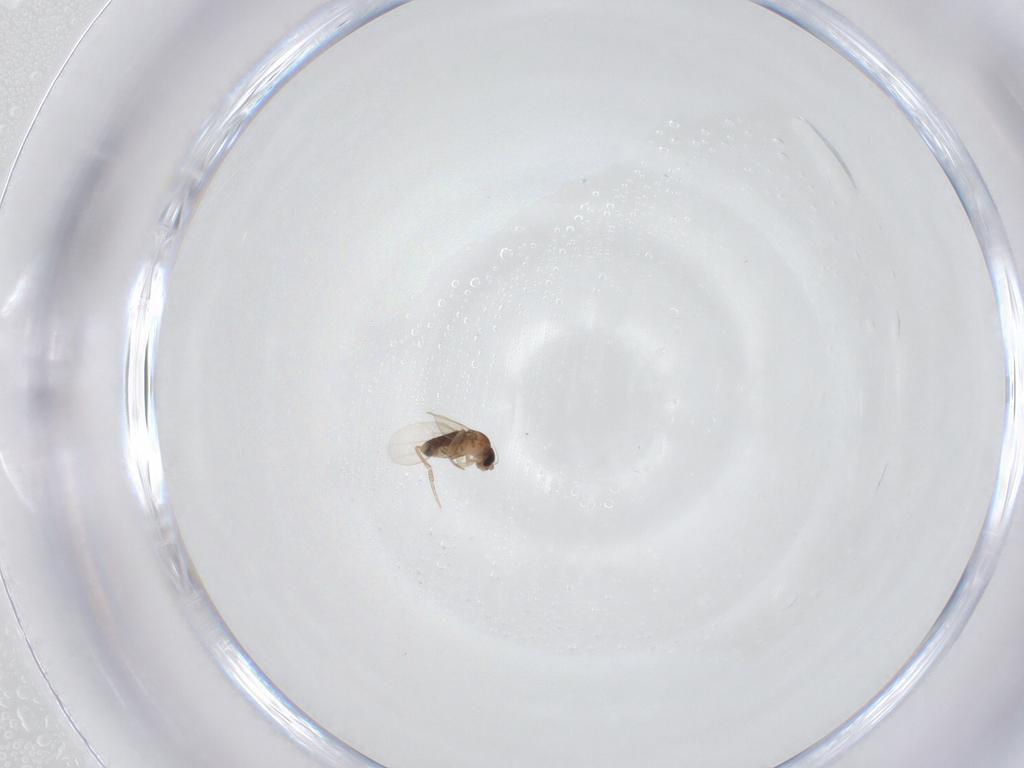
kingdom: Animalia
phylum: Arthropoda
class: Insecta
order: Diptera
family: Phoridae
